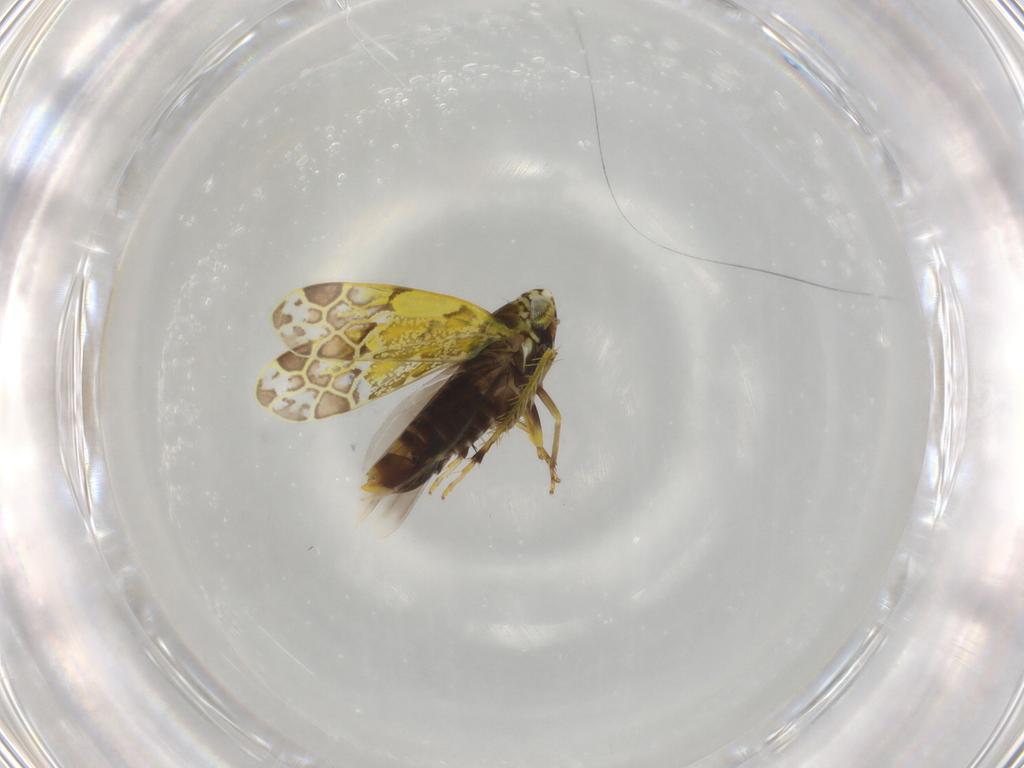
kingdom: Animalia
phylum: Arthropoda
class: Insecta
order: Hemiptera
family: Cicadellidae
